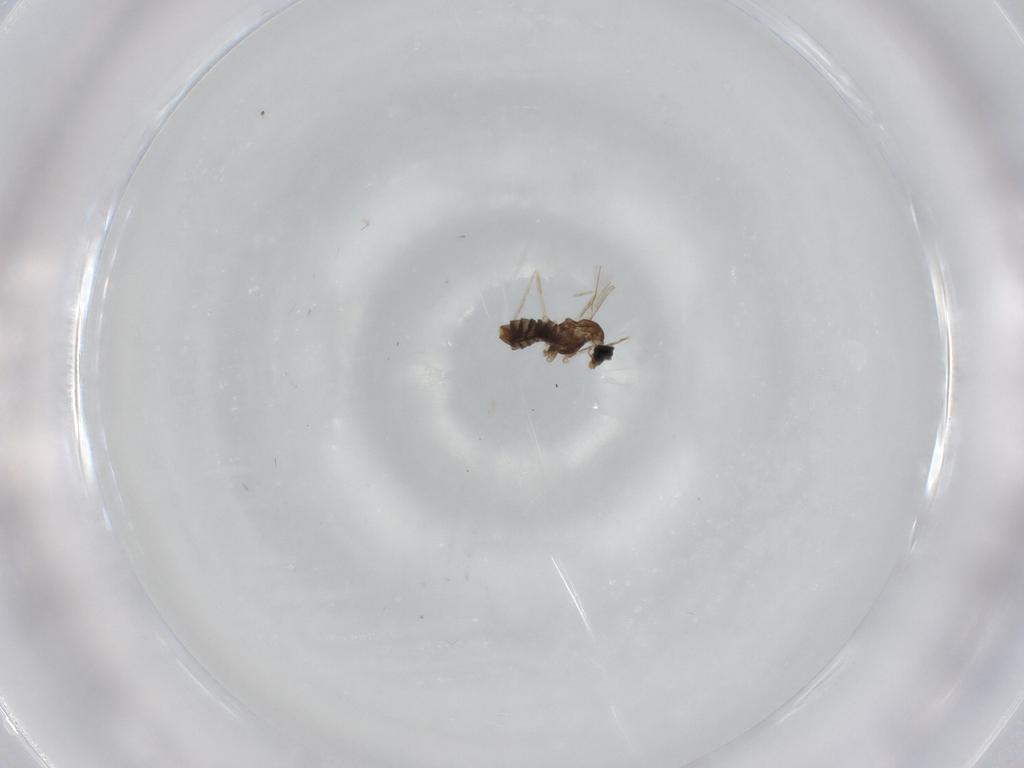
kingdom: Animalia
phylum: Arthropoda
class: Insecta
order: Diptera
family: Cecidomyiidae
